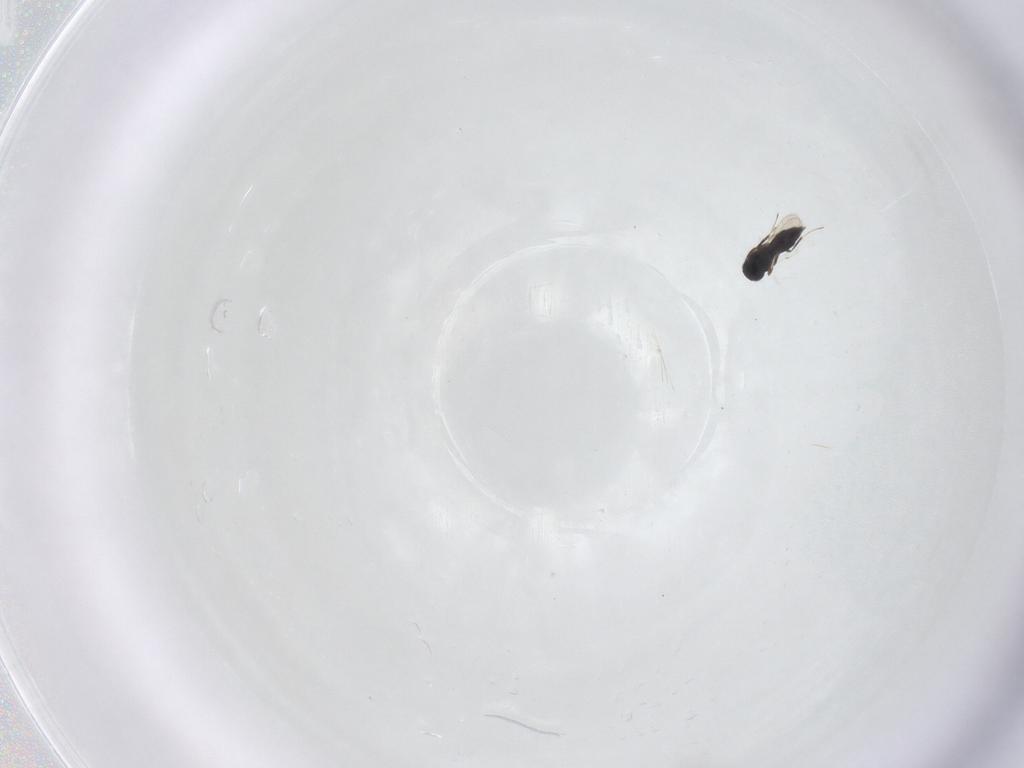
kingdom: Animalia
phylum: Arthropoda
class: Insecta
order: Hymenoptera
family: Scelionidae
